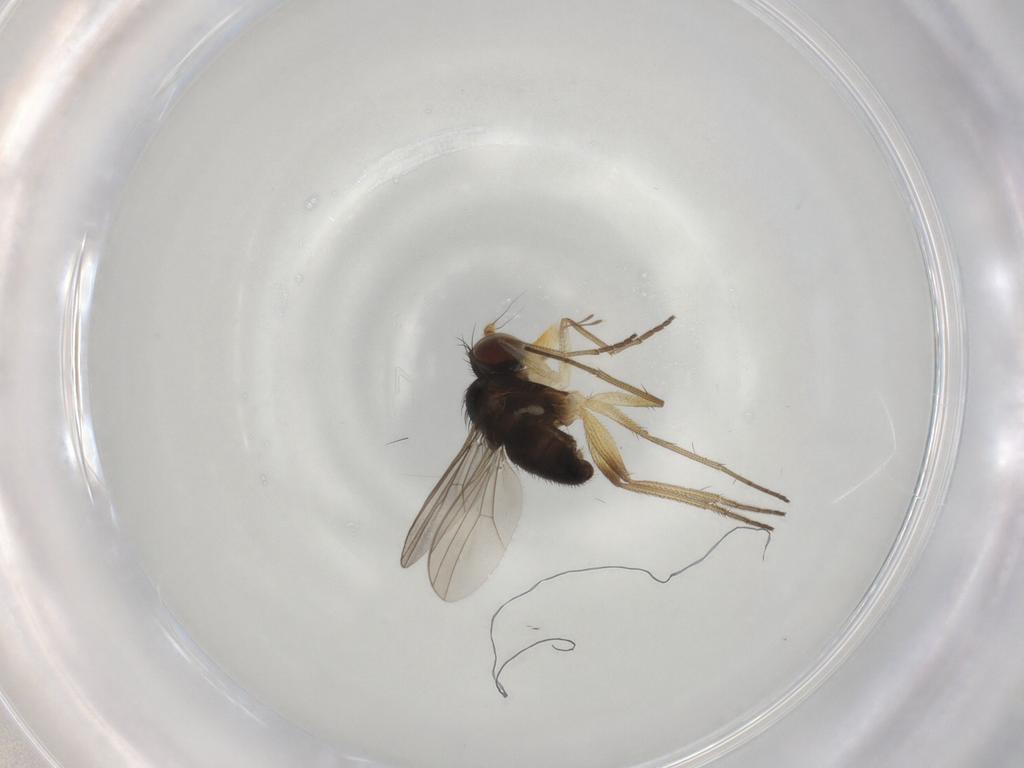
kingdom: Animalia
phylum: Arthropoda
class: Insecta
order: Diptera
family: Dolichopodidae
